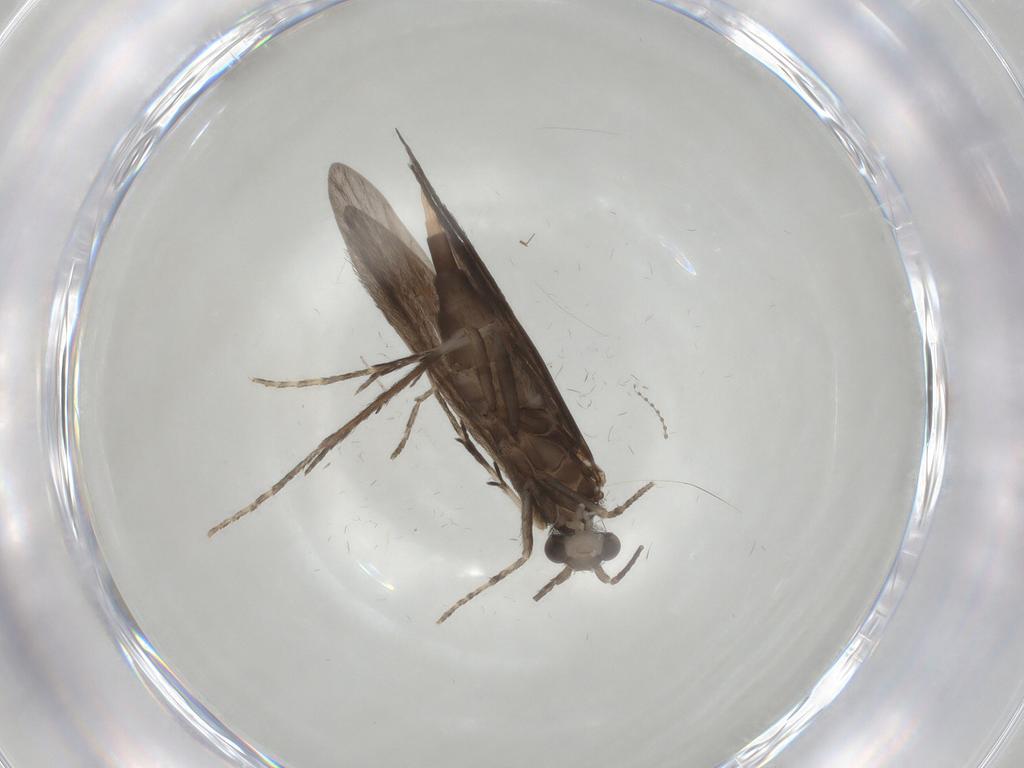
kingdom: Animalia
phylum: Arthropoda
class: Insecta
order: Trichoptera
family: Xiphocentronidae
